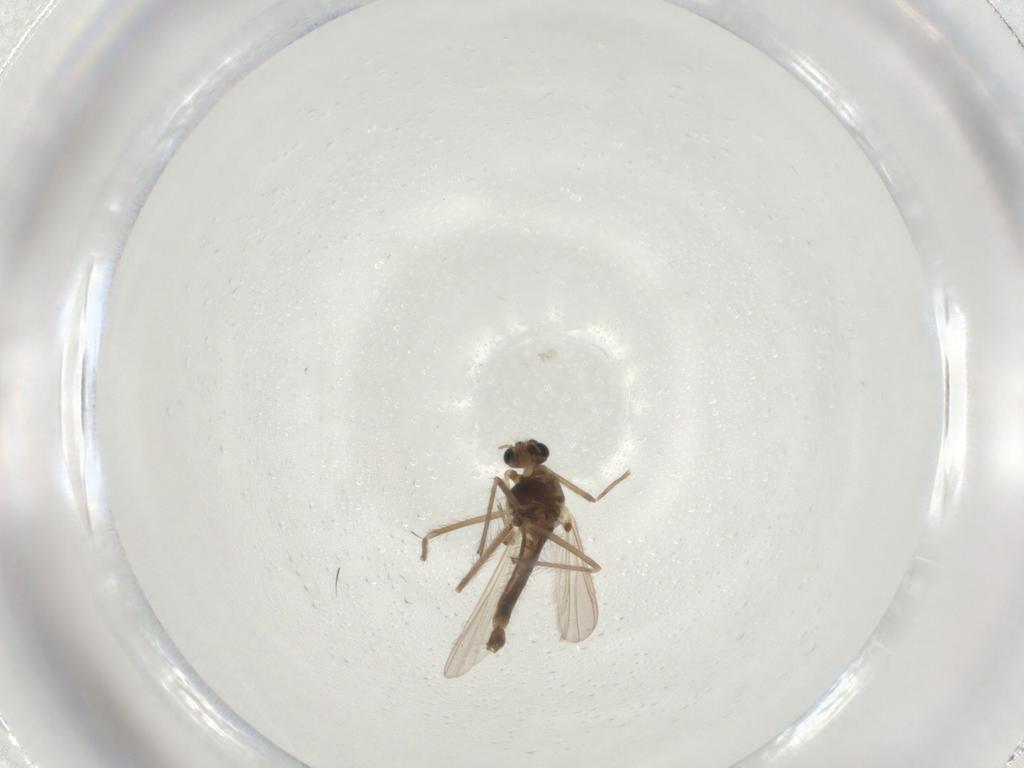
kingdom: Animalia
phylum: Arthropoda
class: Insecta
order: Diptera
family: Chironomidae
